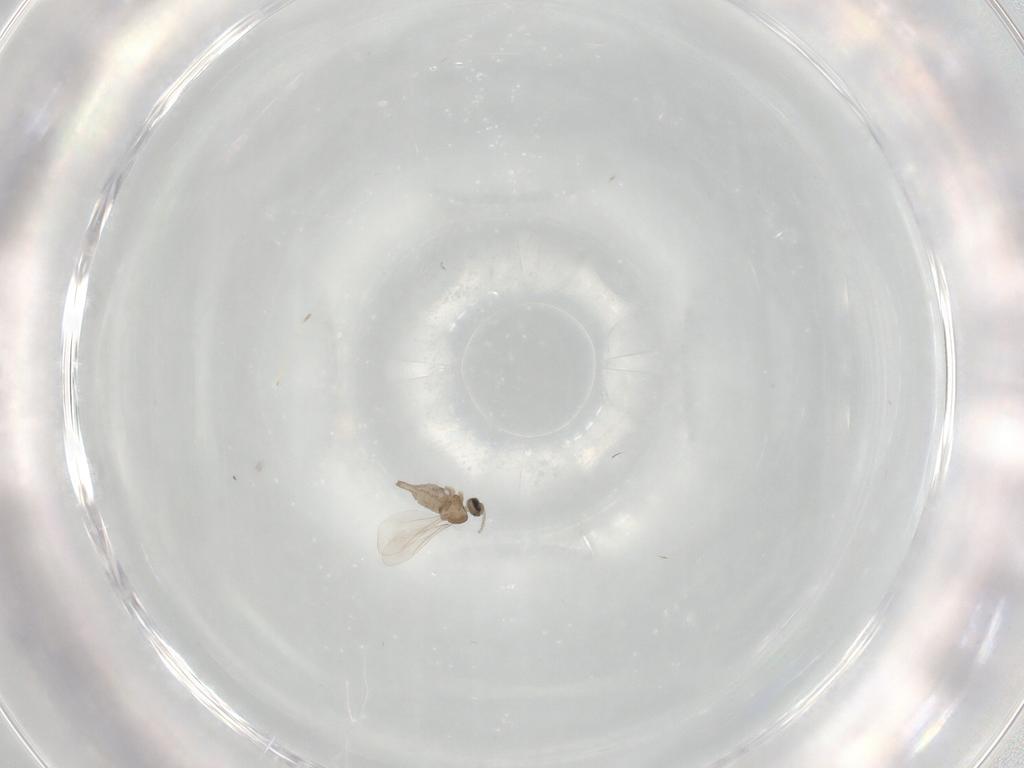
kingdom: Animalia
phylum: Arthropoda
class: Insecta
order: Diptera
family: Cecidomyiidae
